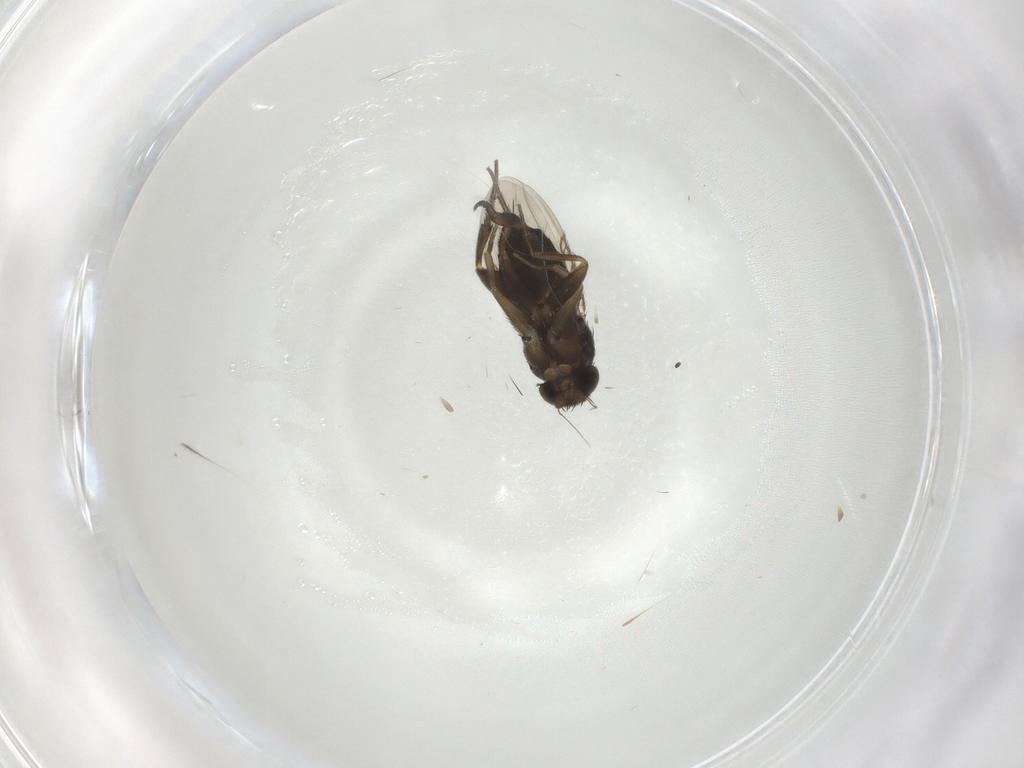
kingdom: Animalia
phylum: Arthropoda
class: Insecta
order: Diptera
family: Phoridae
